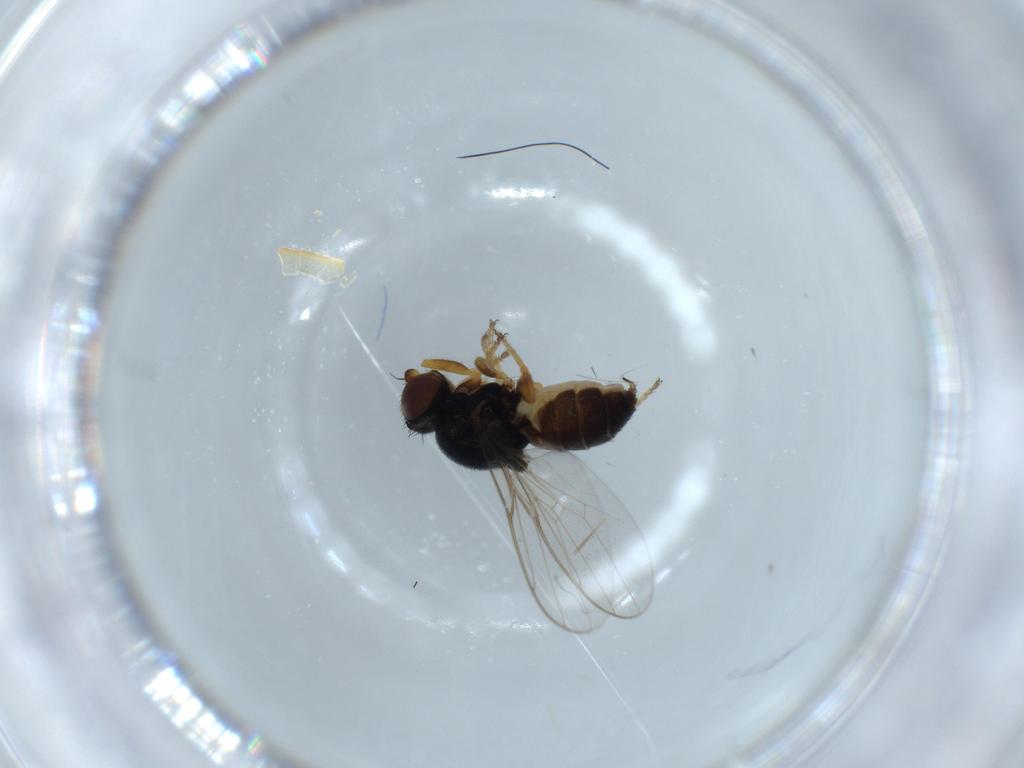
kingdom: Animalia
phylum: Arthropoda
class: Insecta
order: Diptera
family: Chloropidae
